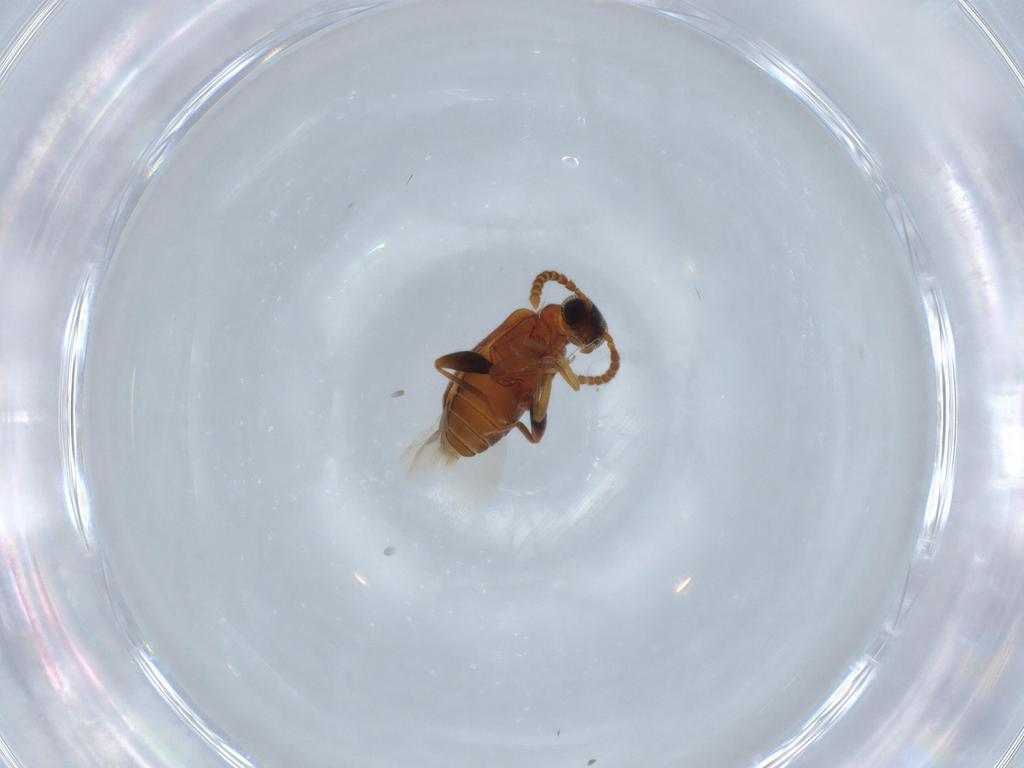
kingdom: Animalia
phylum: Arthropoda
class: Insecta
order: Coleoptera
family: Aderidae
